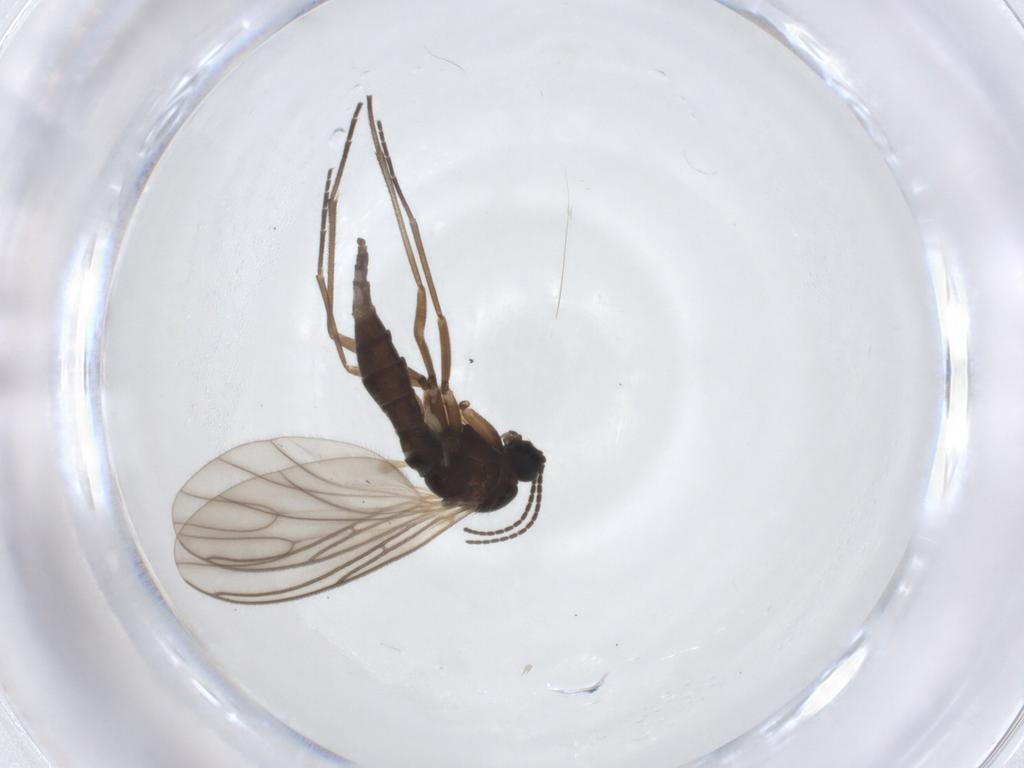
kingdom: Animalia
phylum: Arthropoda
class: Insecta
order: Diptera
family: Sciaridae
